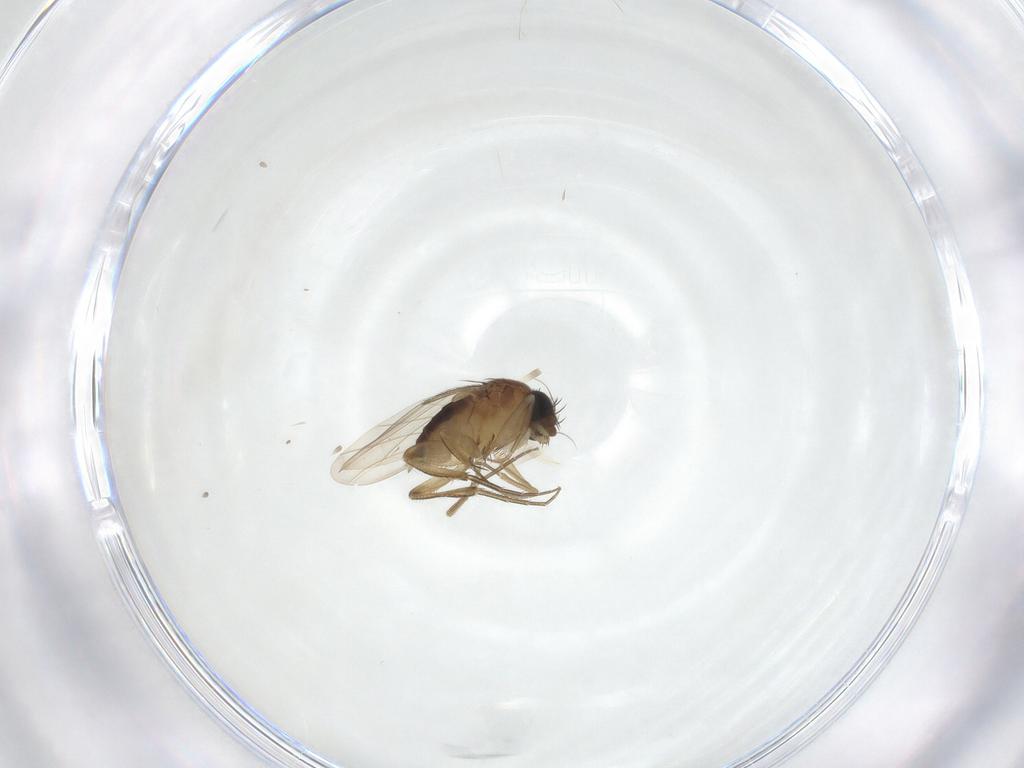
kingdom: Animalia
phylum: Arthropoda
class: Insecta
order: Diptera
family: Phoridae
